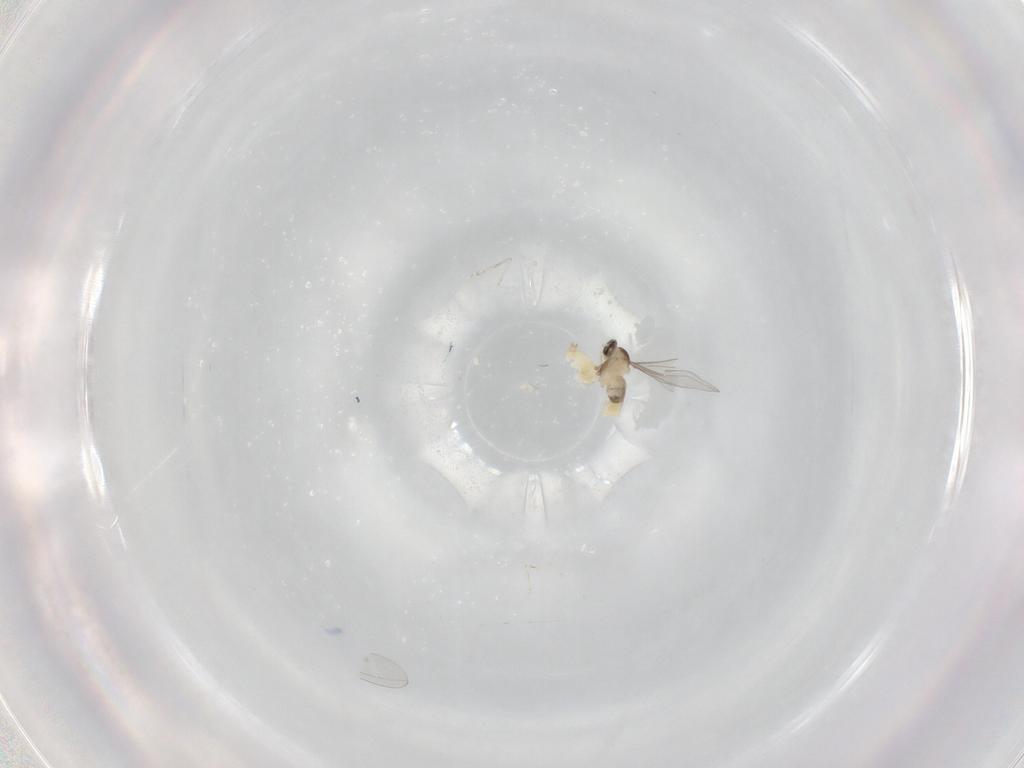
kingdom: Animalia
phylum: Arthropoda
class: Insecta
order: Diptera
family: Cecidomyiidae
